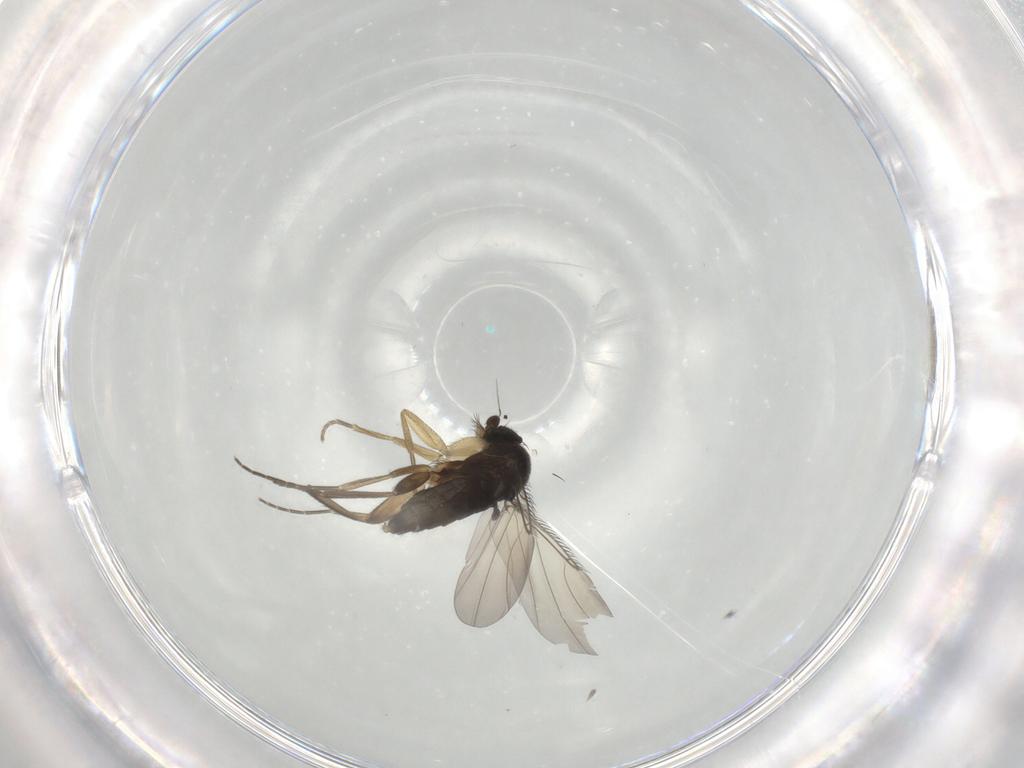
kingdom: Animalia
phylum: Arthropoda
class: Insecta
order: Diptera
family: Phoridae
